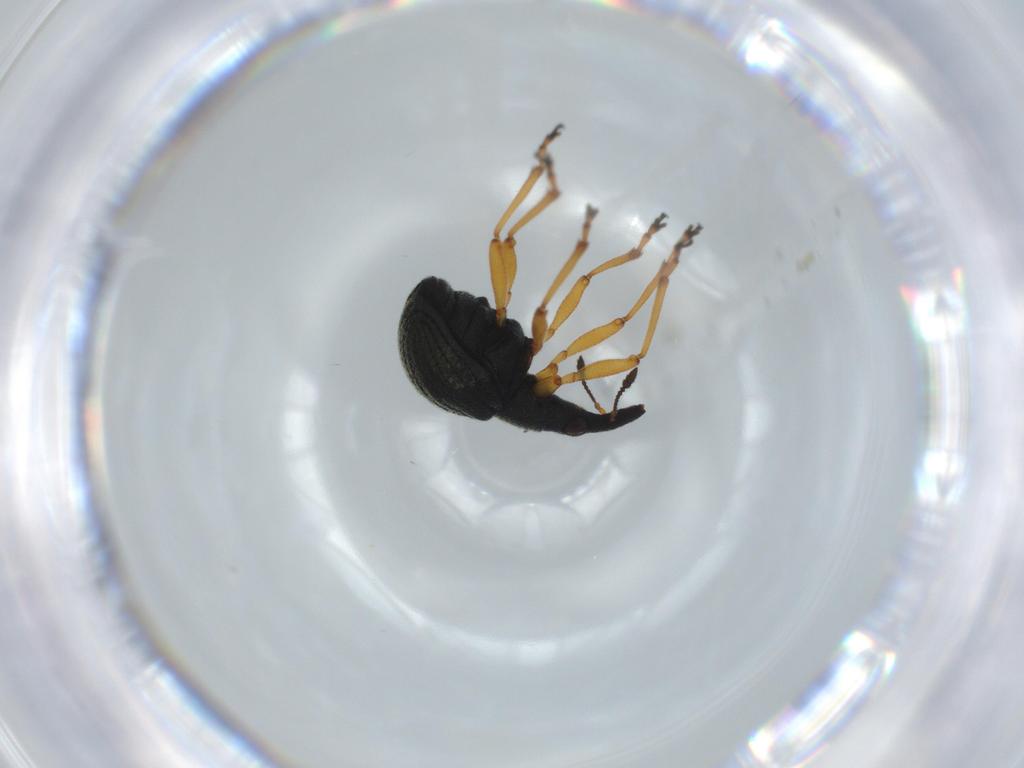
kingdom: Animalia
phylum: Arthropoda
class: Insecta
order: Coleoptera
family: Brentidae
